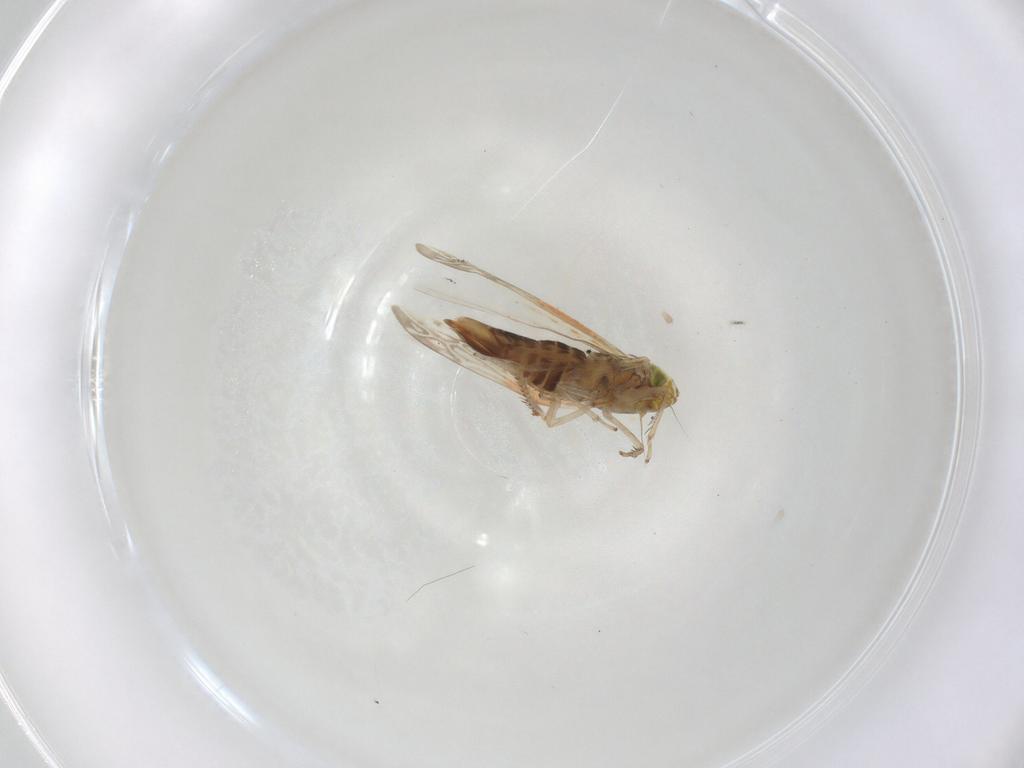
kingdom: Animalia
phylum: Arthropoda
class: Insecta
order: Hemiptera
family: Cicadellidae
